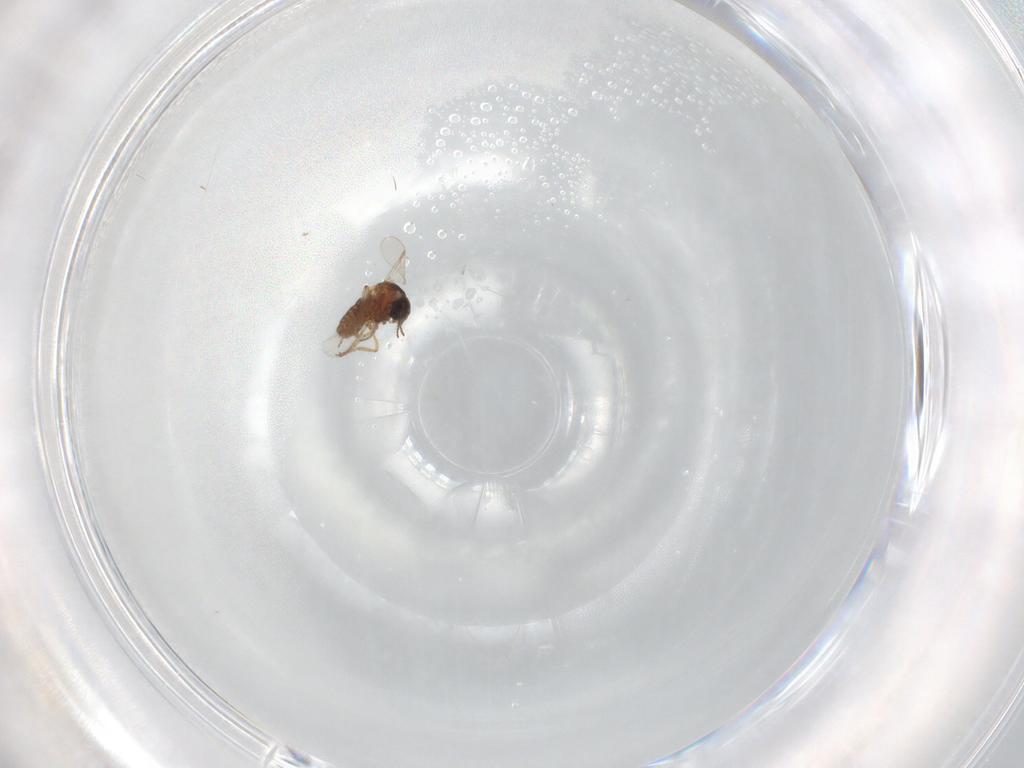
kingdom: Animalia
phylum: Arthropoda
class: Insecta
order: Diptera
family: Ceratopogonidae
